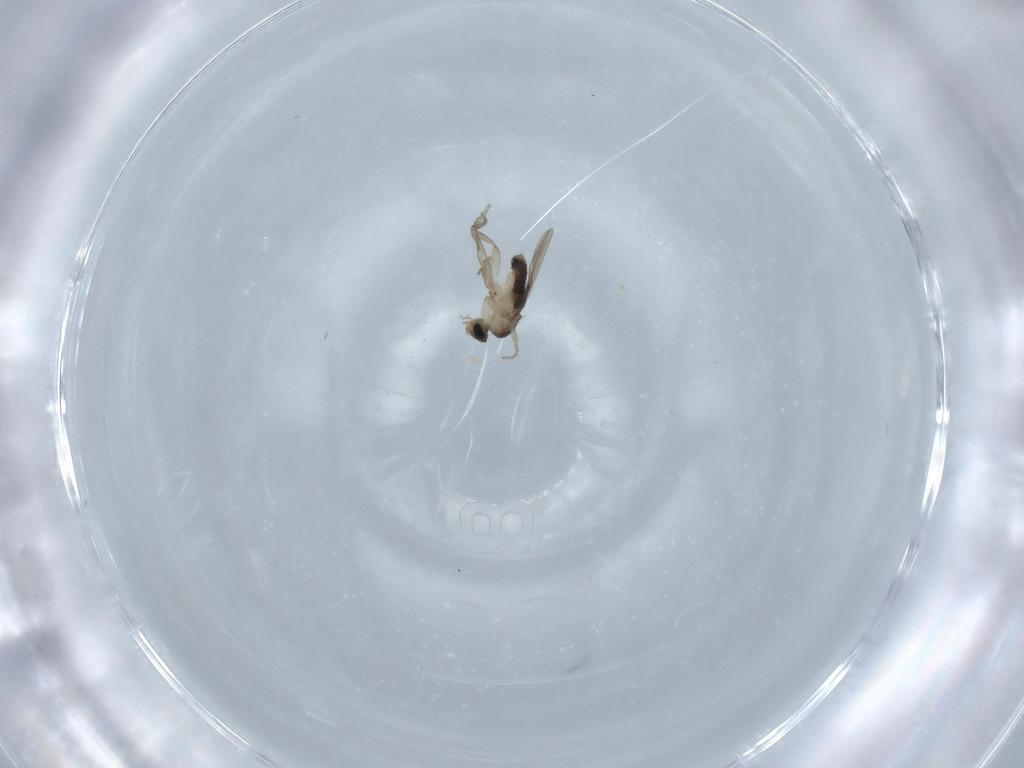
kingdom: Animalia
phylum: Arthropoda
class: Insecta
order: Diptera
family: Phoridae
